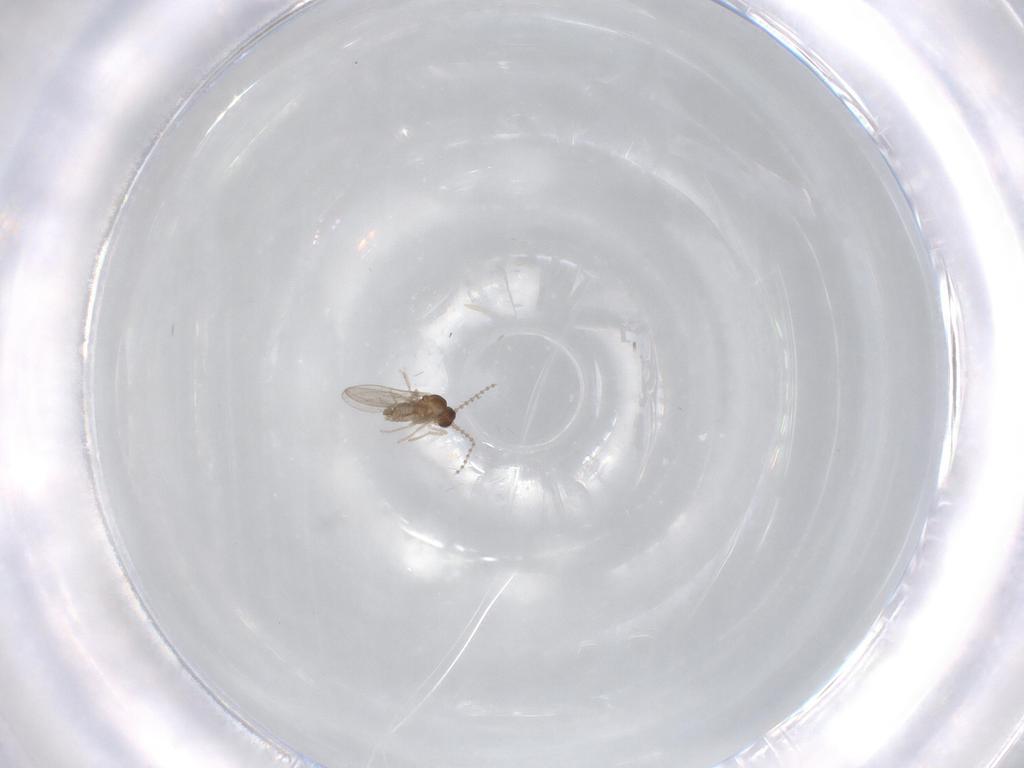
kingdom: Animalia
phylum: Arthropoda
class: Insecta
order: Diptera
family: Cecidomyiidae
